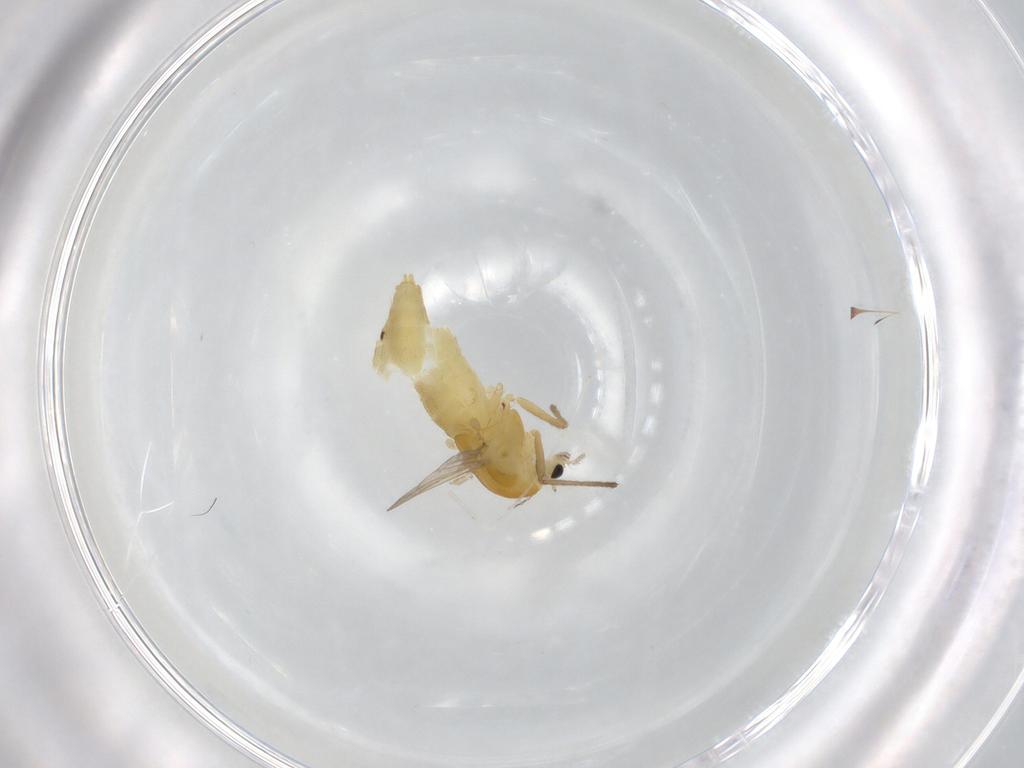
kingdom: Animalia
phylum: Arthropoda
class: Insecta
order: Diptera
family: Chironomidae
